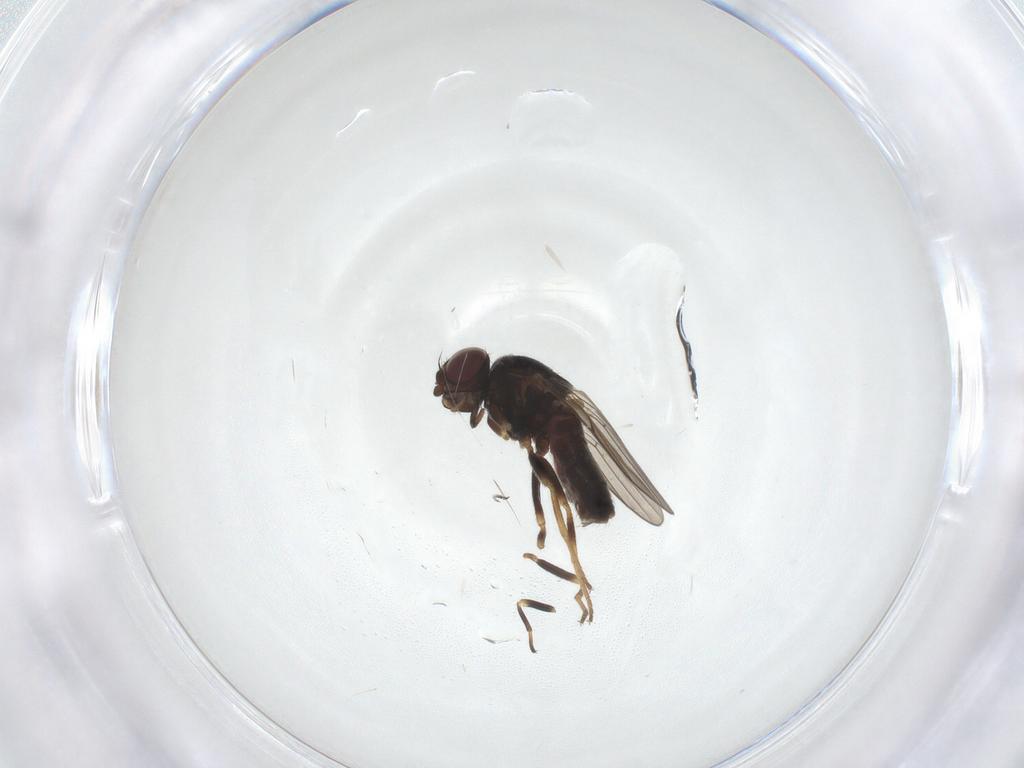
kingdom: Animalia
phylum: Arthropoda
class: Insecta
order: Diptera
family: Chloropidae
